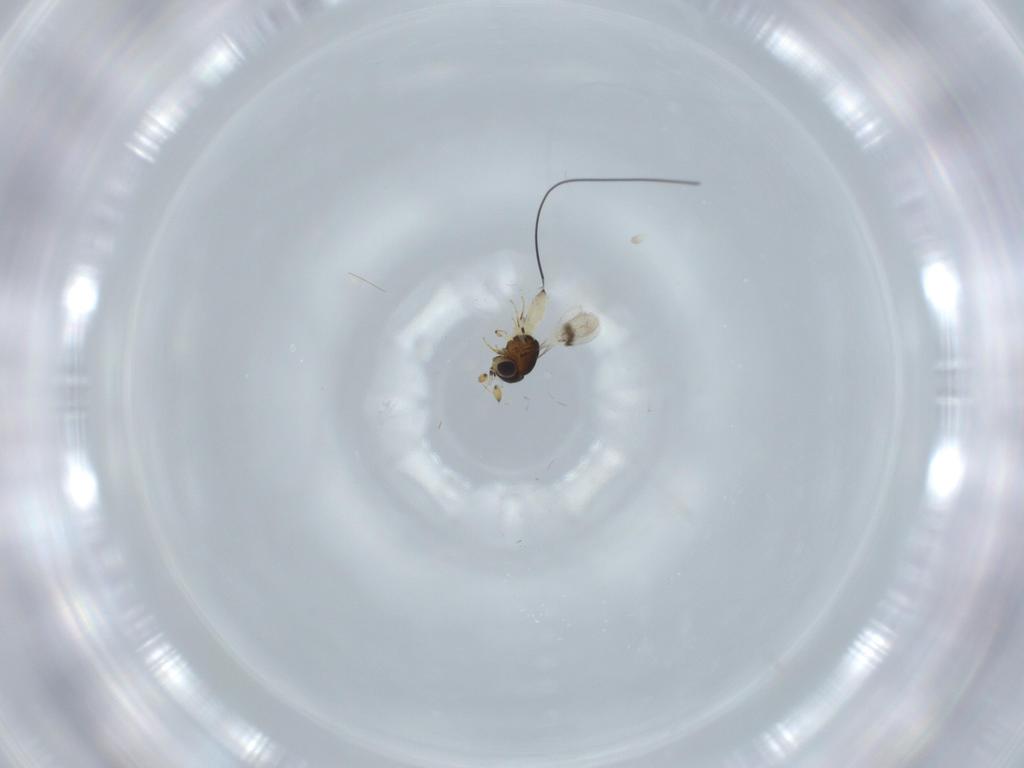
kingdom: Animalia
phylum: Arthropoda
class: Insecta
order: Hymenoptera
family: Scelionidae
